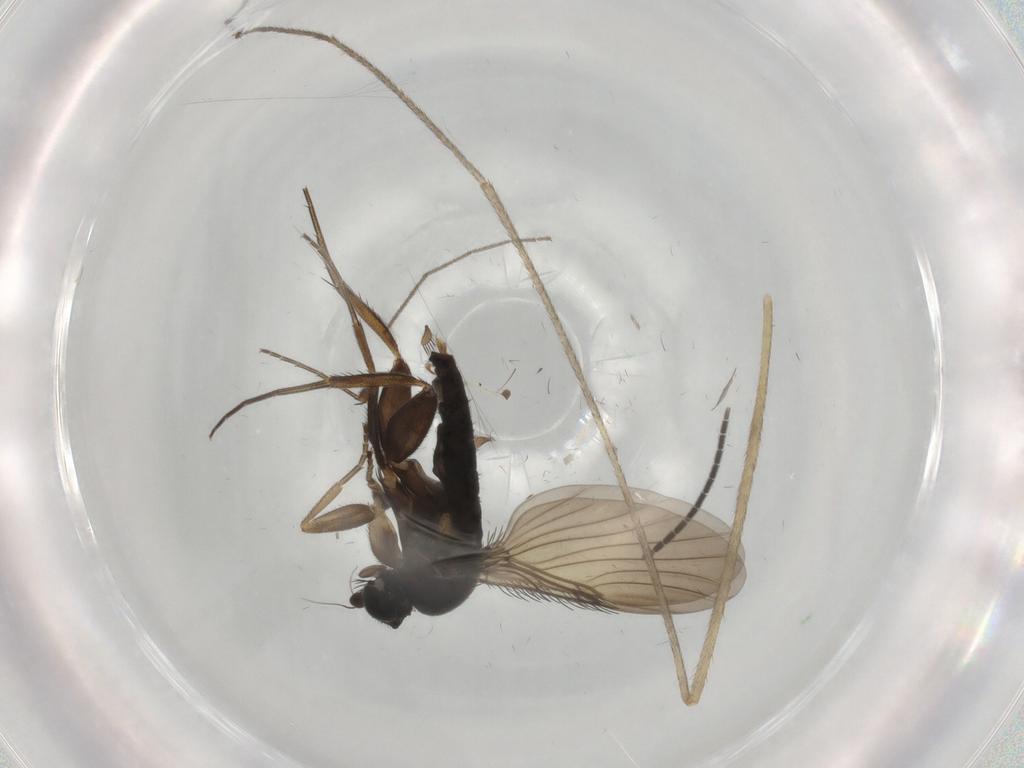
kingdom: Animalia
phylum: Arthropoda
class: Insecta
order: Diptera
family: Phoridae
